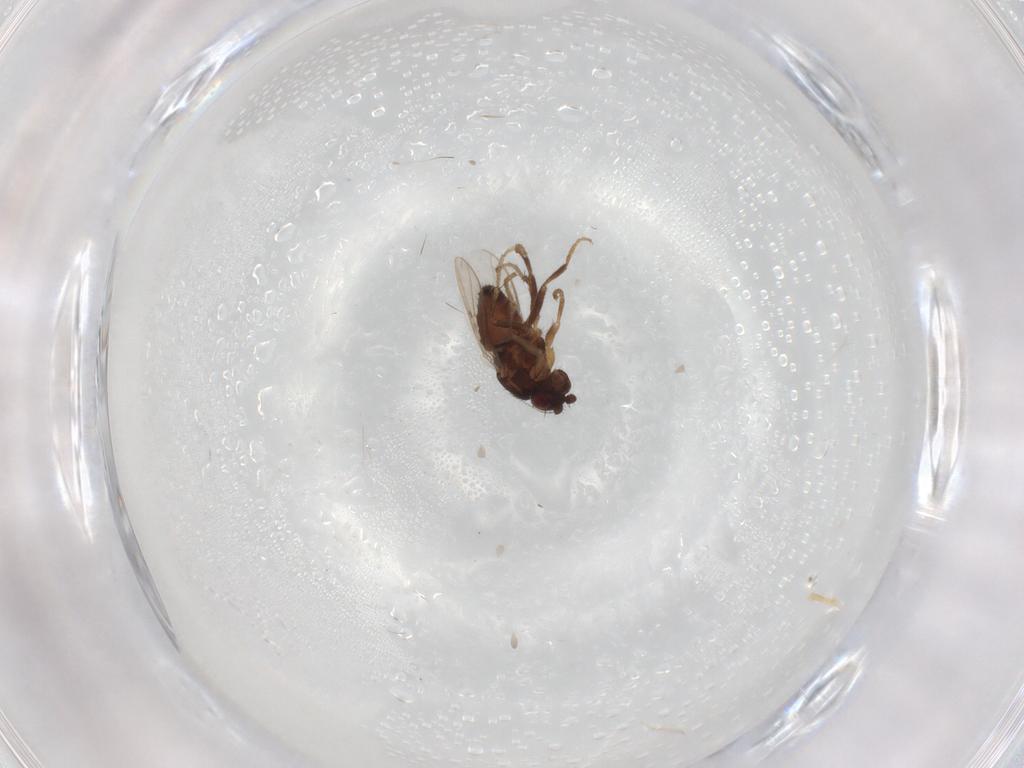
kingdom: Animalia
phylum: Arthropoda
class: Insecta
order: Diptera
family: Sphaeroceridae
